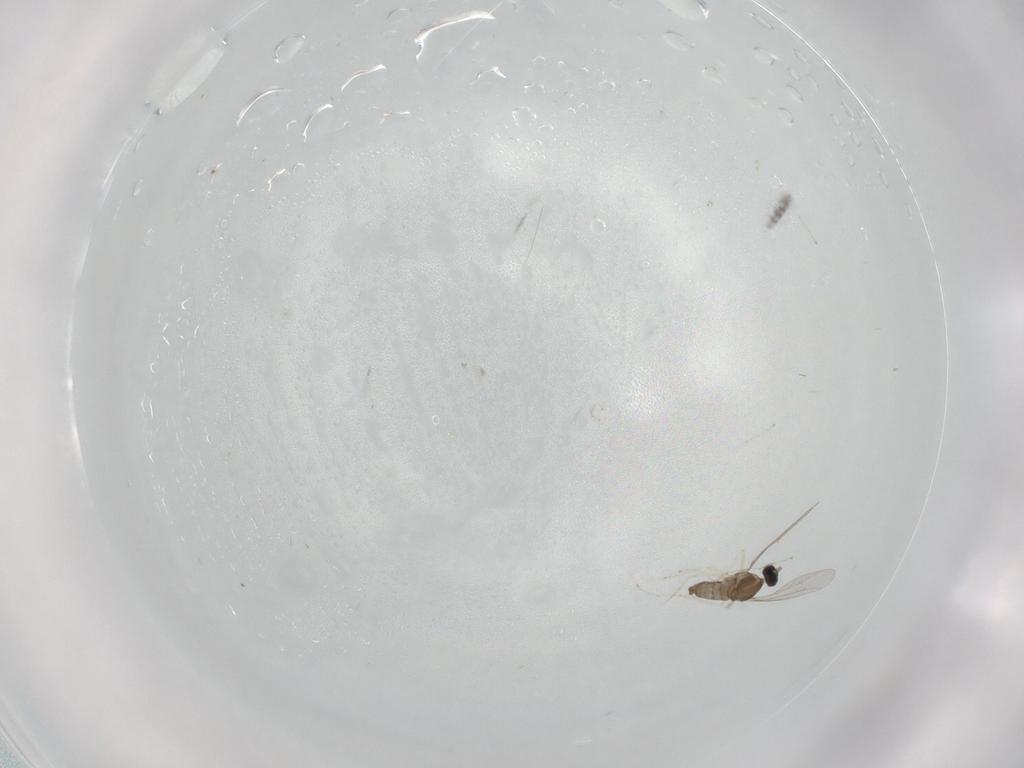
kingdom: Animalia
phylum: Arthropoda
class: Insecta
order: Diptera
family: Cecidomyiidae
